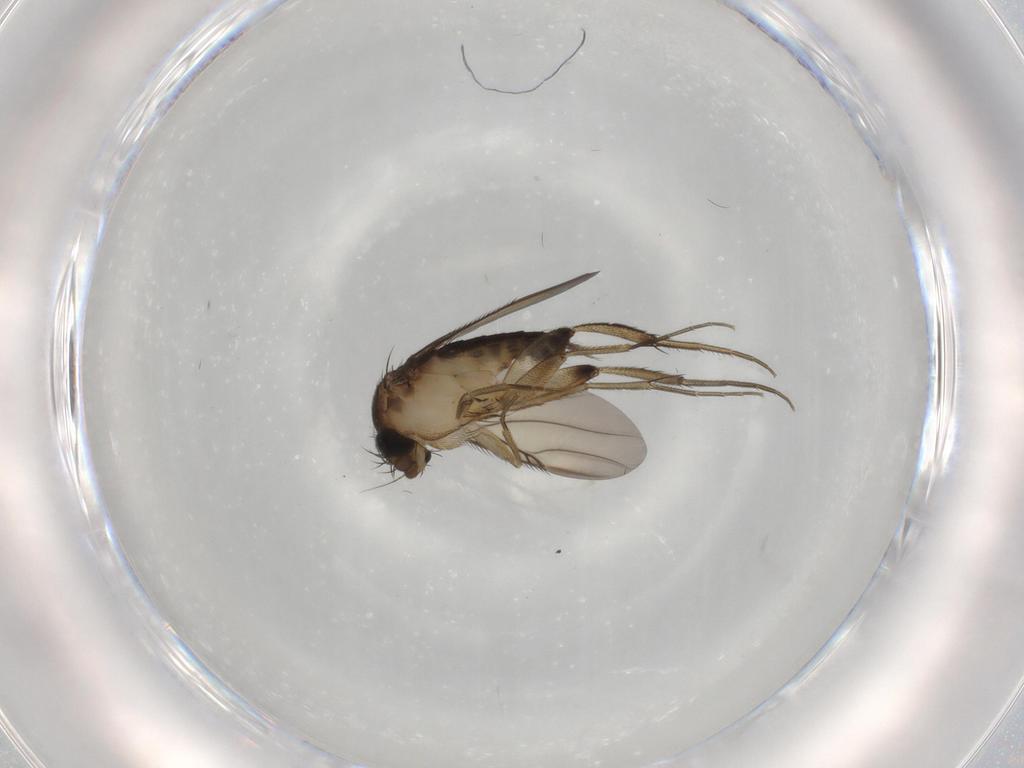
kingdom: Animalia
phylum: Arthropoda
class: Insecta
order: Diptera
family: Phoridae
